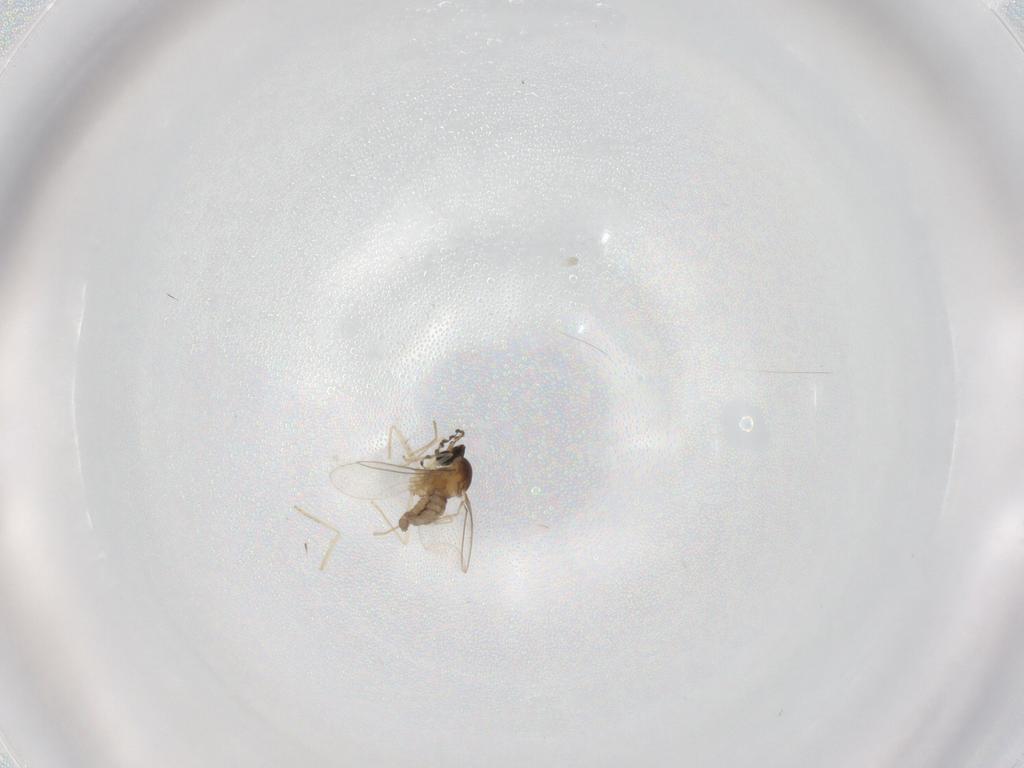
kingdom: Animalia
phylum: Arthropoda
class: Insecta
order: Diptera
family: Cecidomyiidae
